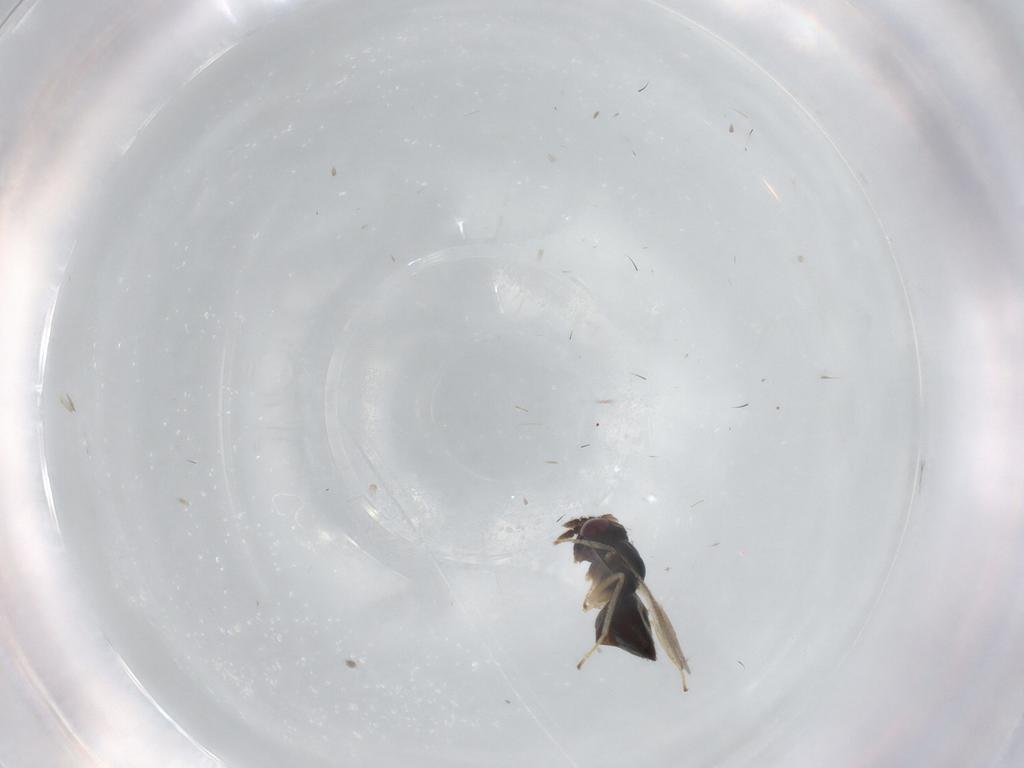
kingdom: Animalia
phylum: Arthropoda
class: Insecta
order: Hymenoptera
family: Eulophidae
